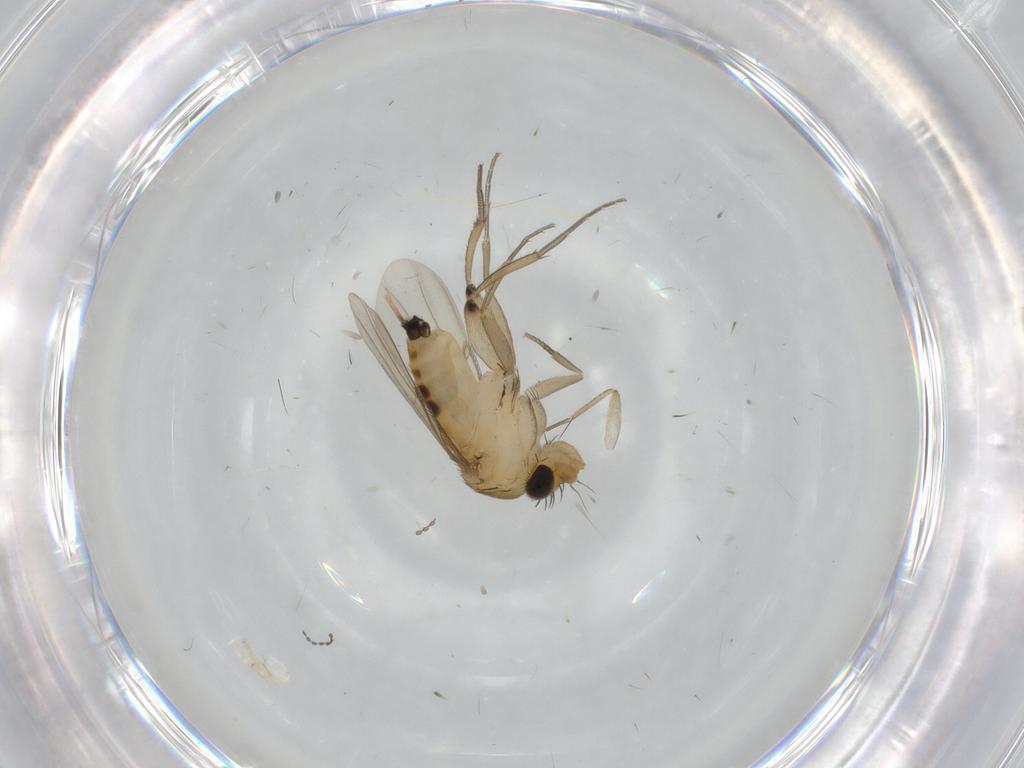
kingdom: Animalia
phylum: Arthropoda
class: Insecta
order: Diptera
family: Phoridae
